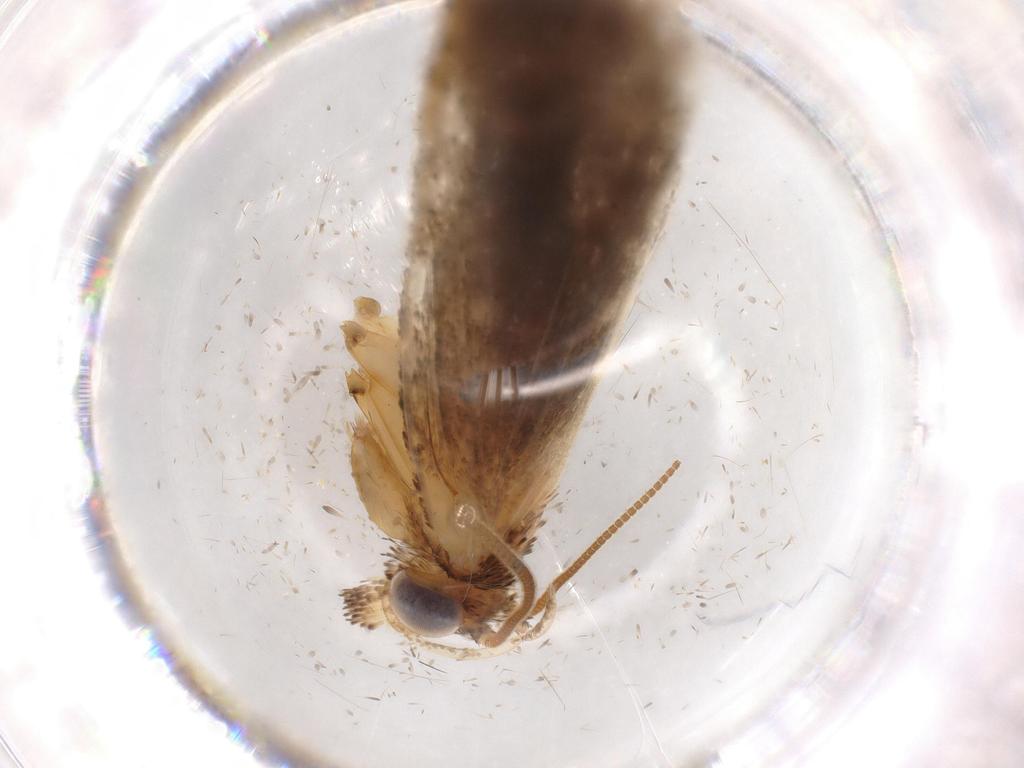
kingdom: Animalia
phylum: Arthropoda
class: Insecta
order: Lepidoptera
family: Tineidae
